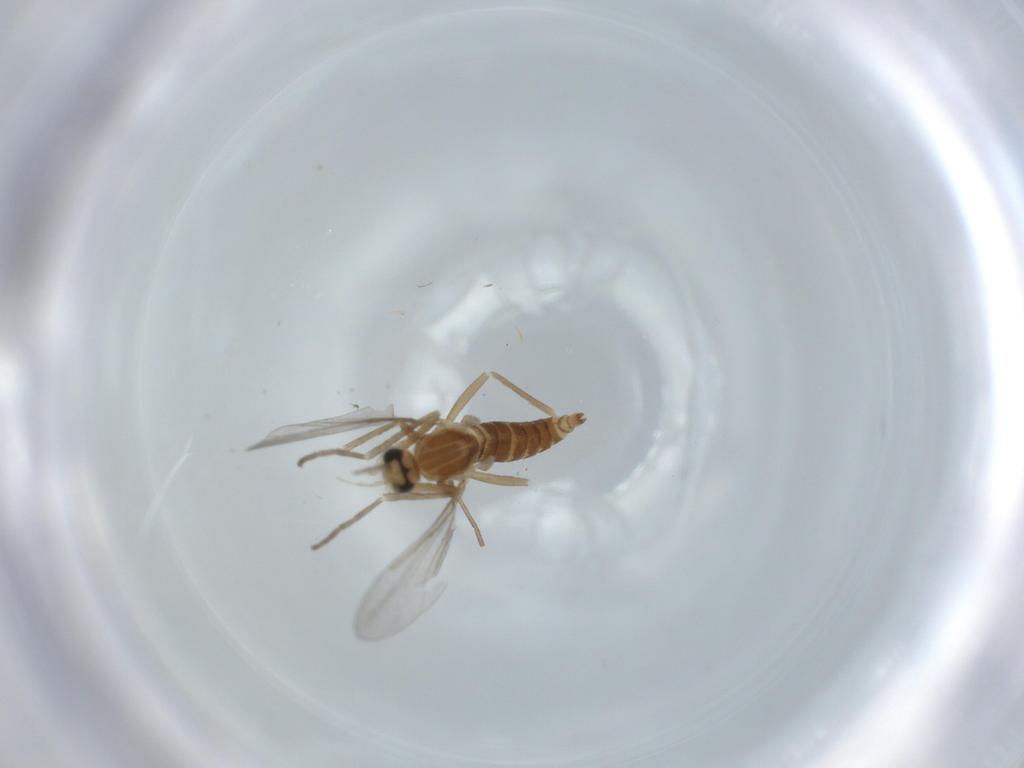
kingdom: Animalia
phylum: Arthropoda
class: Insecta
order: Diptera
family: Cecidomyiidae
